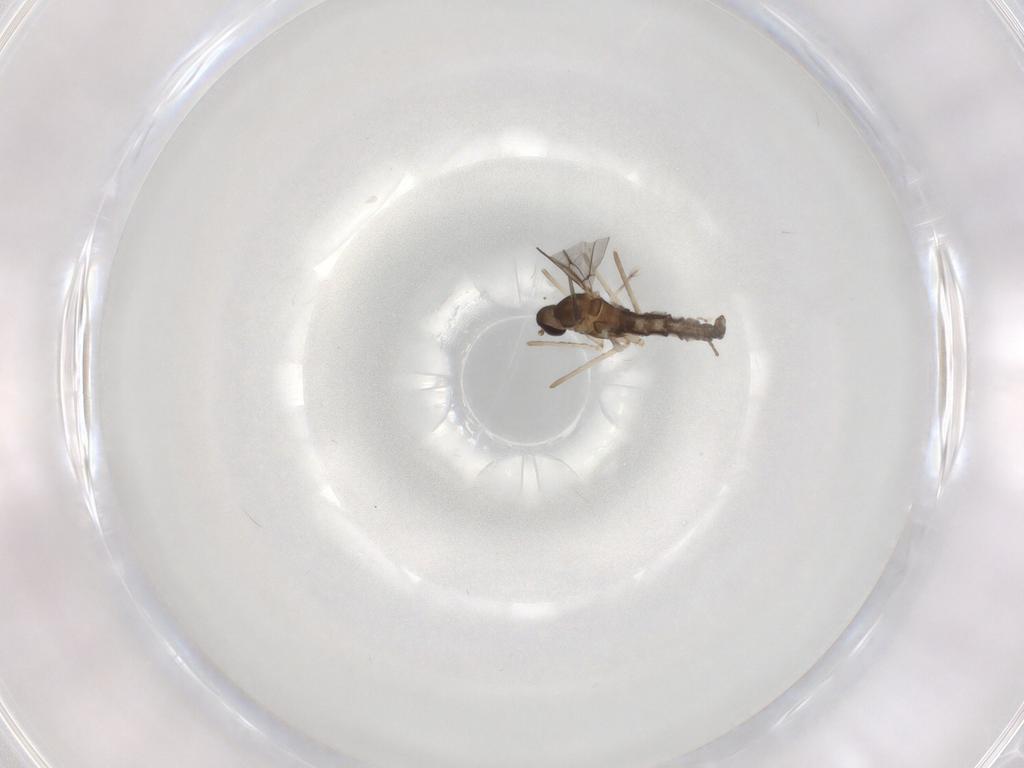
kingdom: Animalia
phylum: Arthropoda
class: Insecta
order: Diptera
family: Cecidomyiidae
